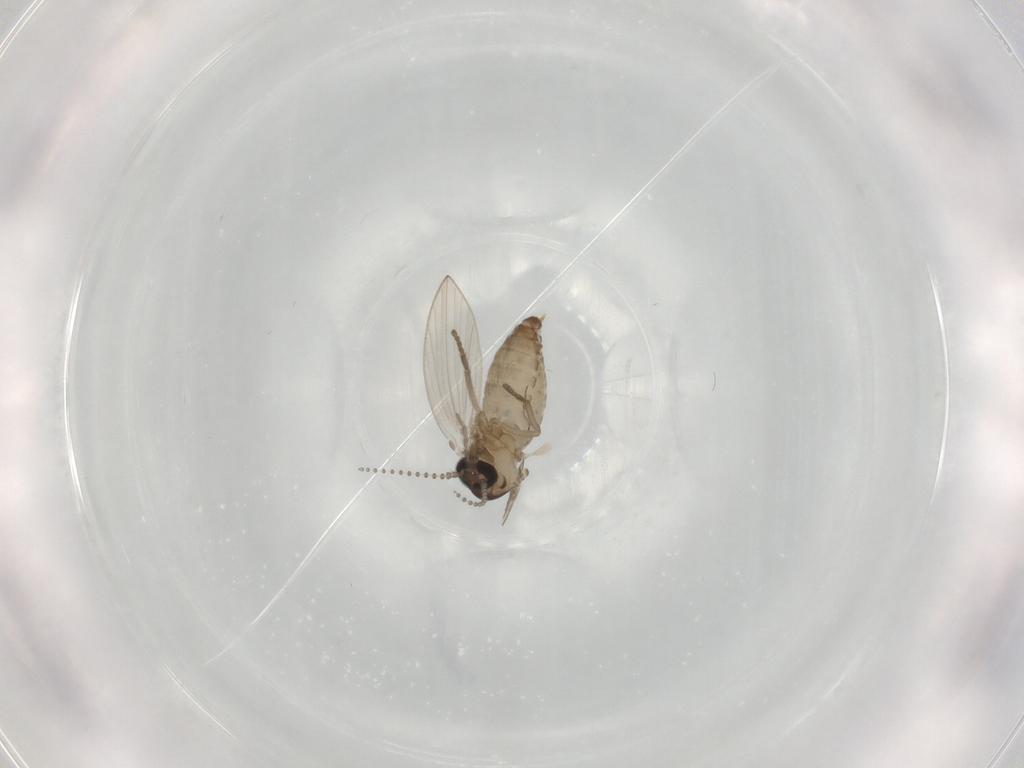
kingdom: Animalia
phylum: Arthropoda
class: Insecta
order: Diptera
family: Psychodidae
